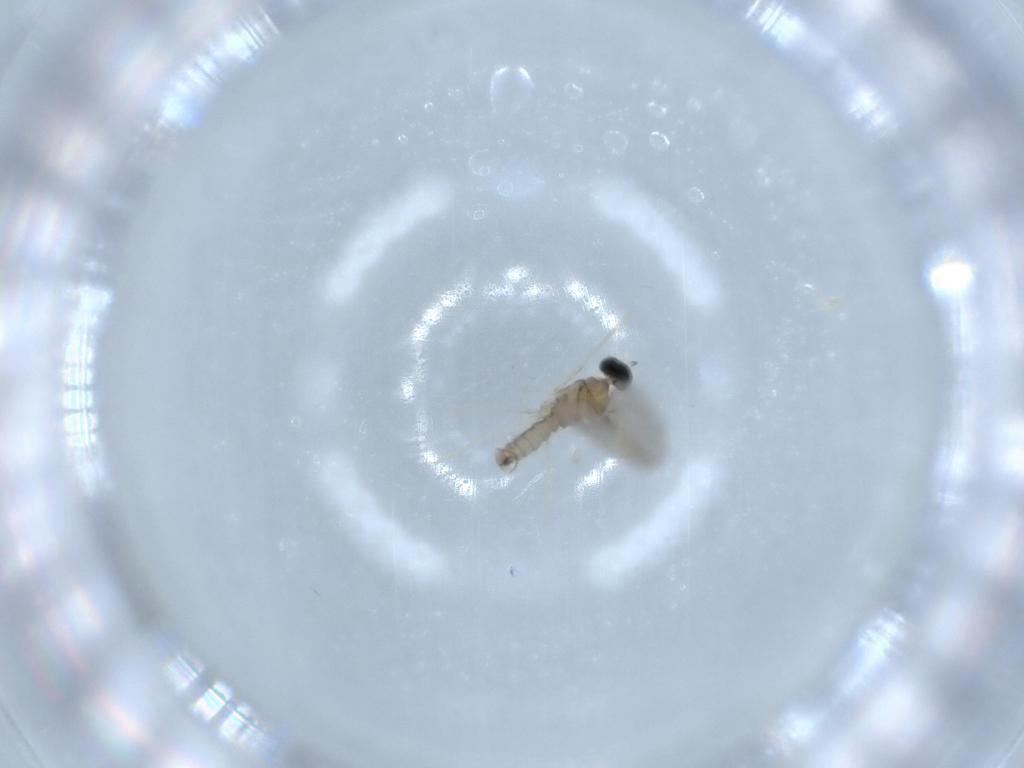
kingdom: Animalia
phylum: Arthropoda
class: Insecta
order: Diptera
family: Cecidomyiidae
